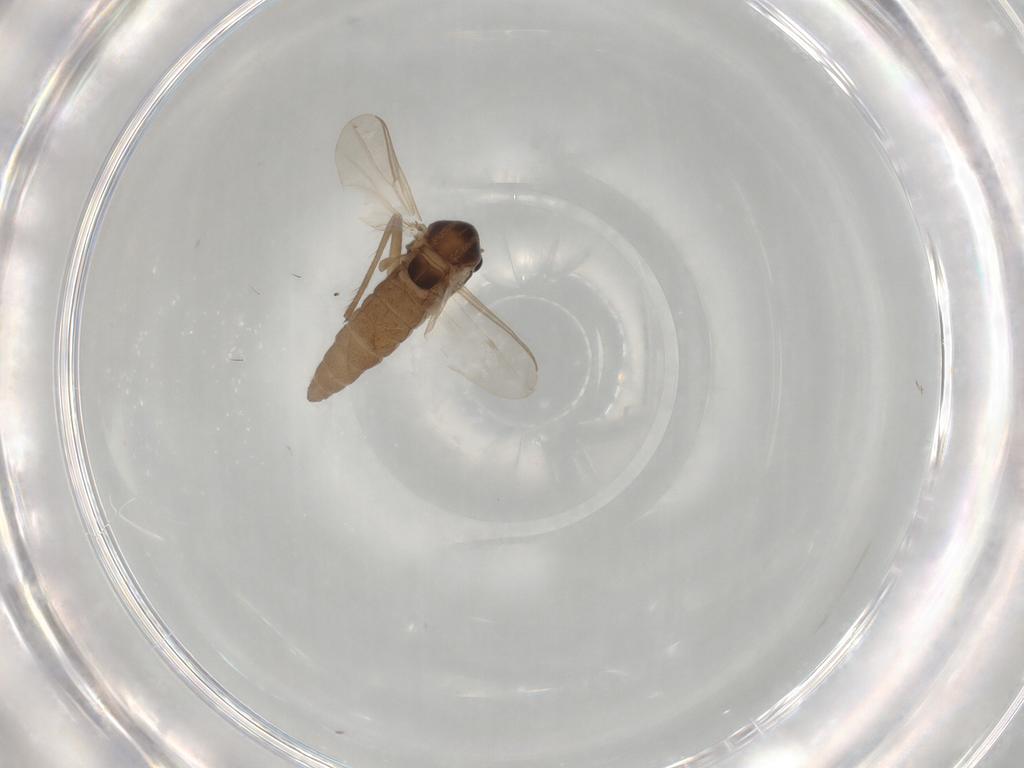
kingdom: Animalia
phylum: Arthropoda
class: Insecta
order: Diptera
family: Chironomidae
